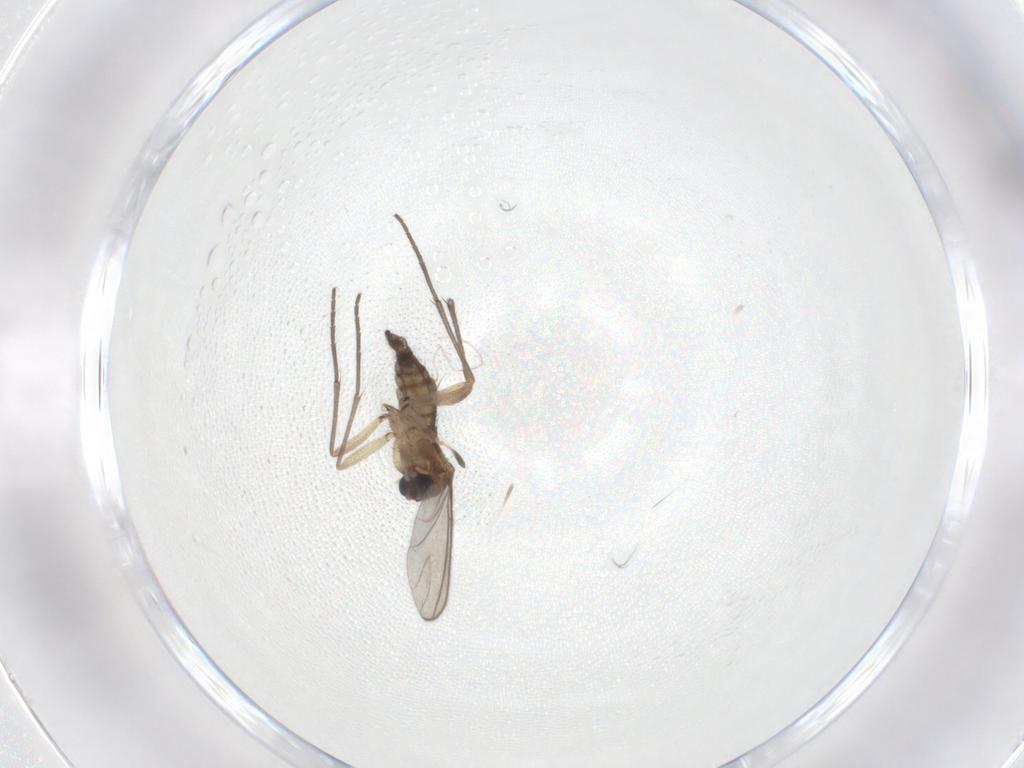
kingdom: Animalia
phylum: Arthropoda
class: Insecta
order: Diptera
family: Sciaridae
